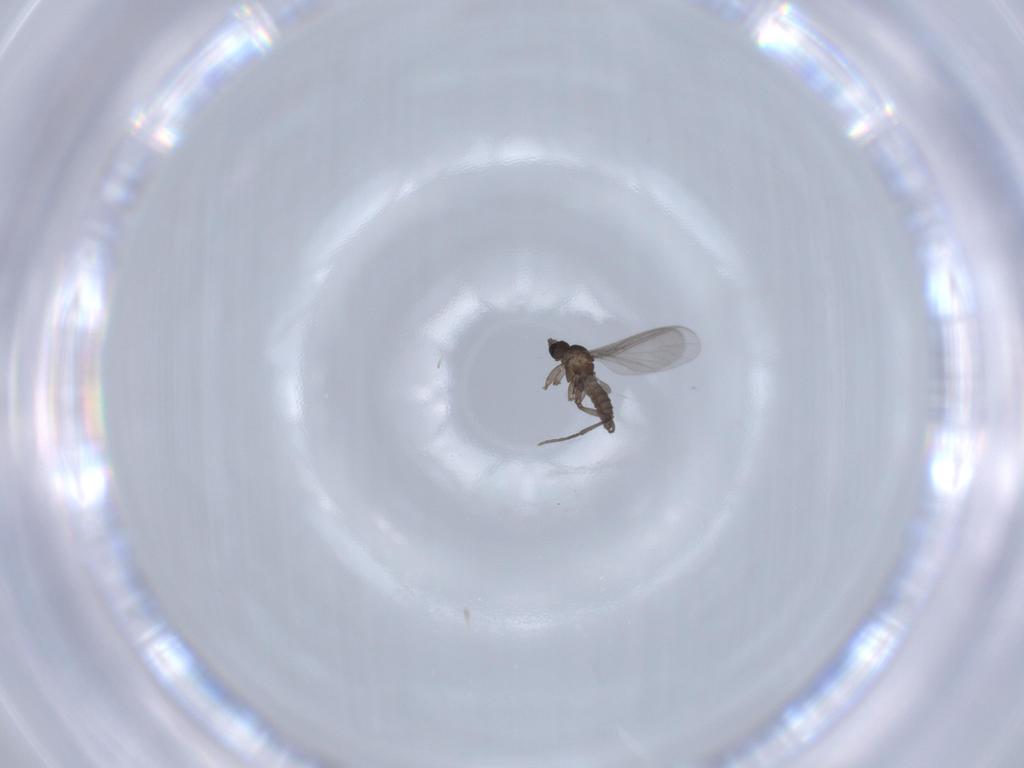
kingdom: Animalia
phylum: Arthropoda
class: Insecta
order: Diptera
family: Sciaridae
